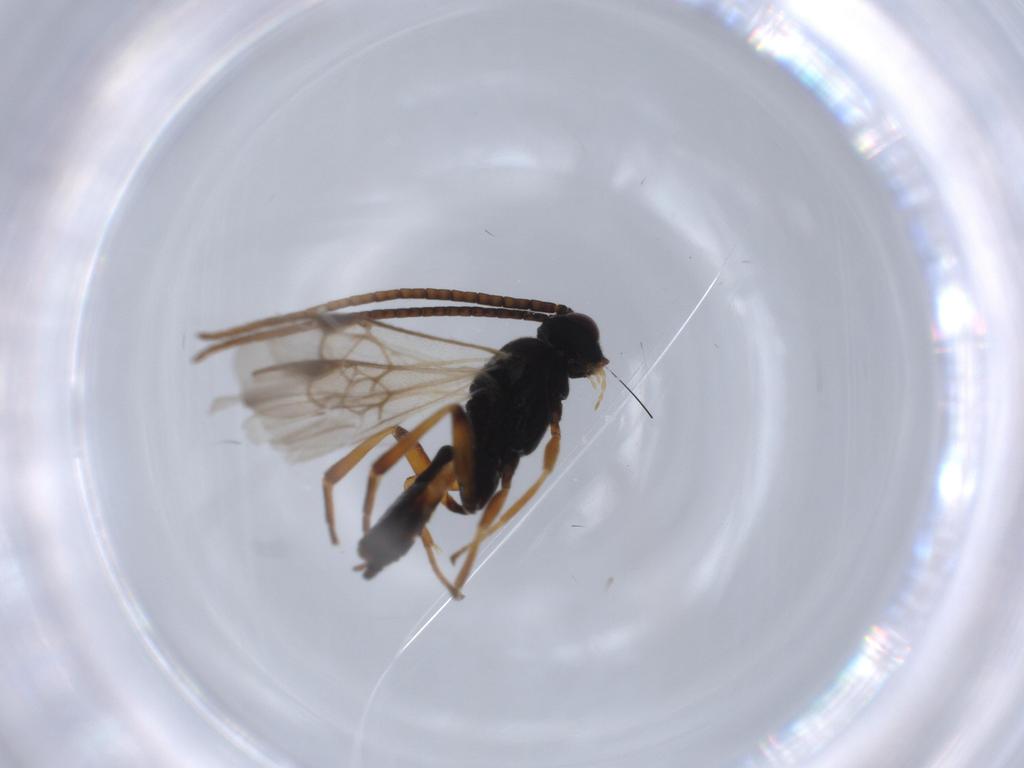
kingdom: Animalia
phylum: Arthropoda
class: Insecta
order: Hymenoptera
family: Braconidae
